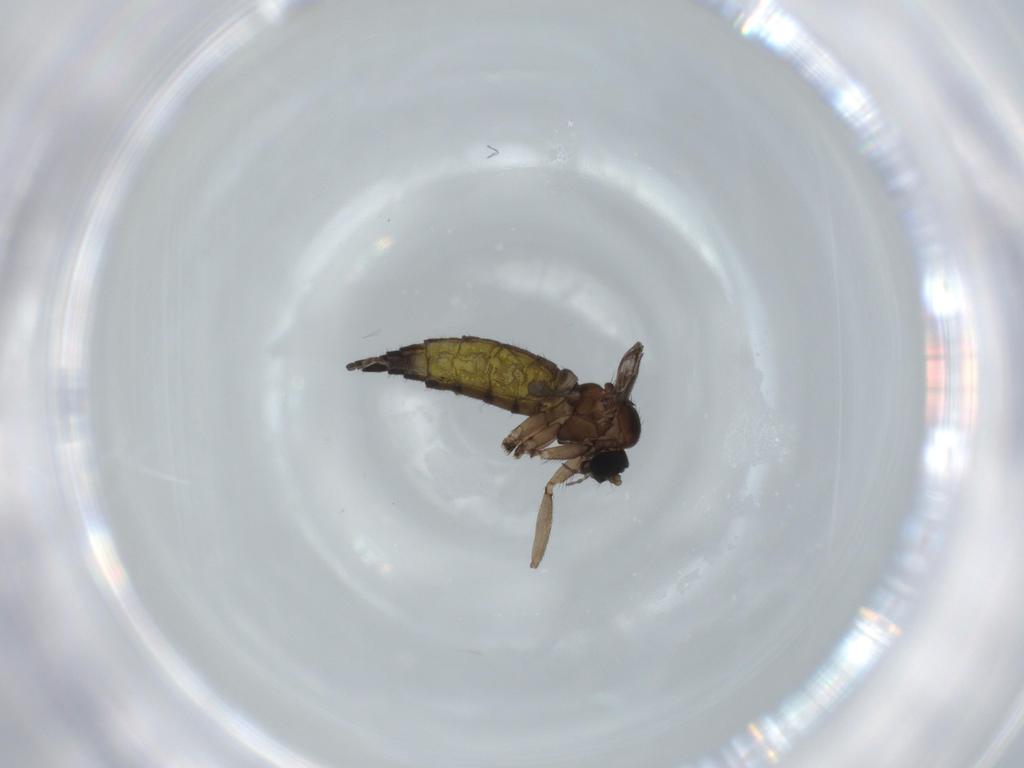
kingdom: Animalia
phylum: Arthropoda
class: Insecta
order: Diptera
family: Sciaridae
